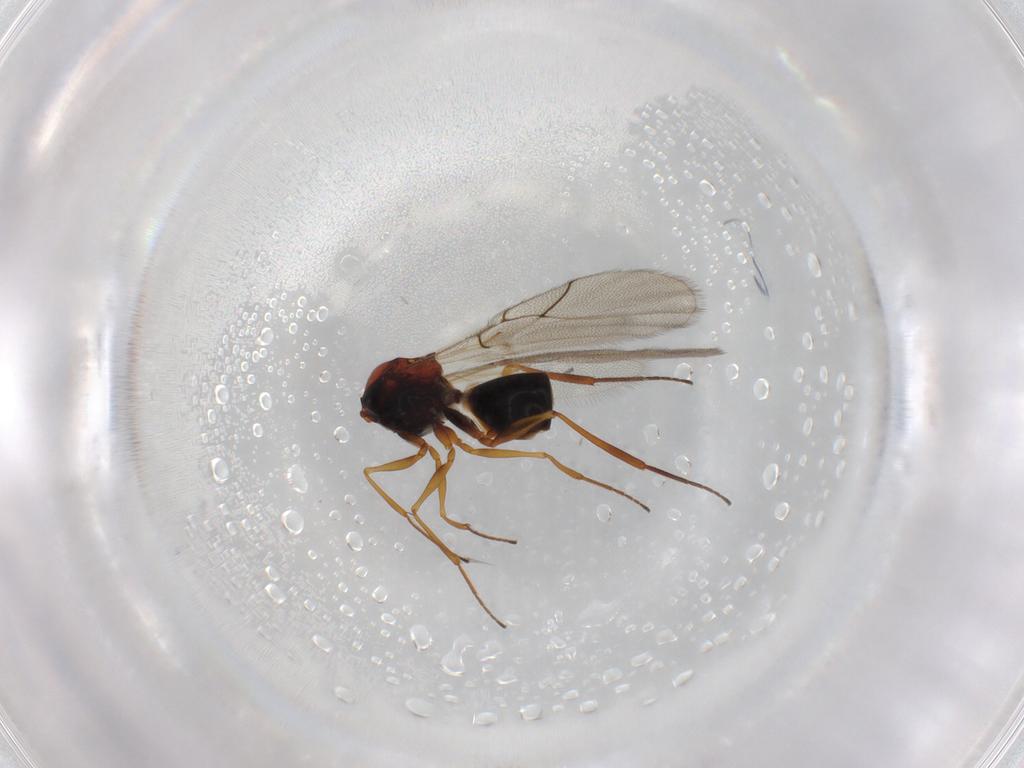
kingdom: Animalia
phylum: Arthropoda
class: Insecta
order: Hymenoptera
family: Figitidae
